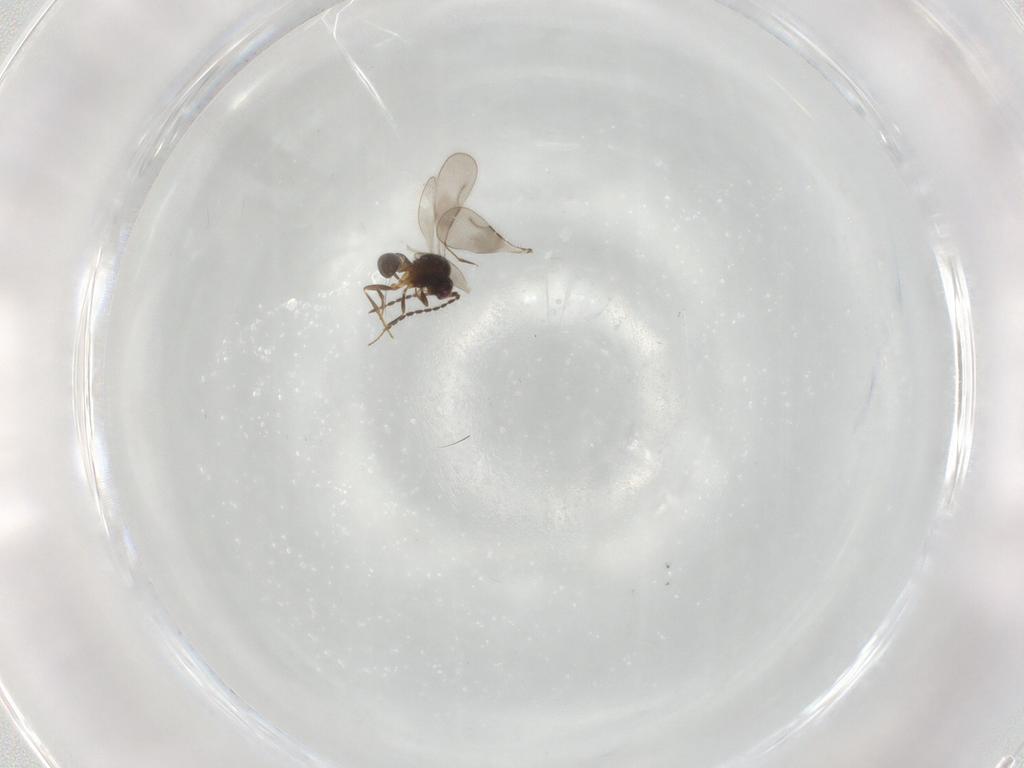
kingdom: Animalia
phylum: Arthropoda
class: Insecta
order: Hymenoptera
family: Ceraphronidae
